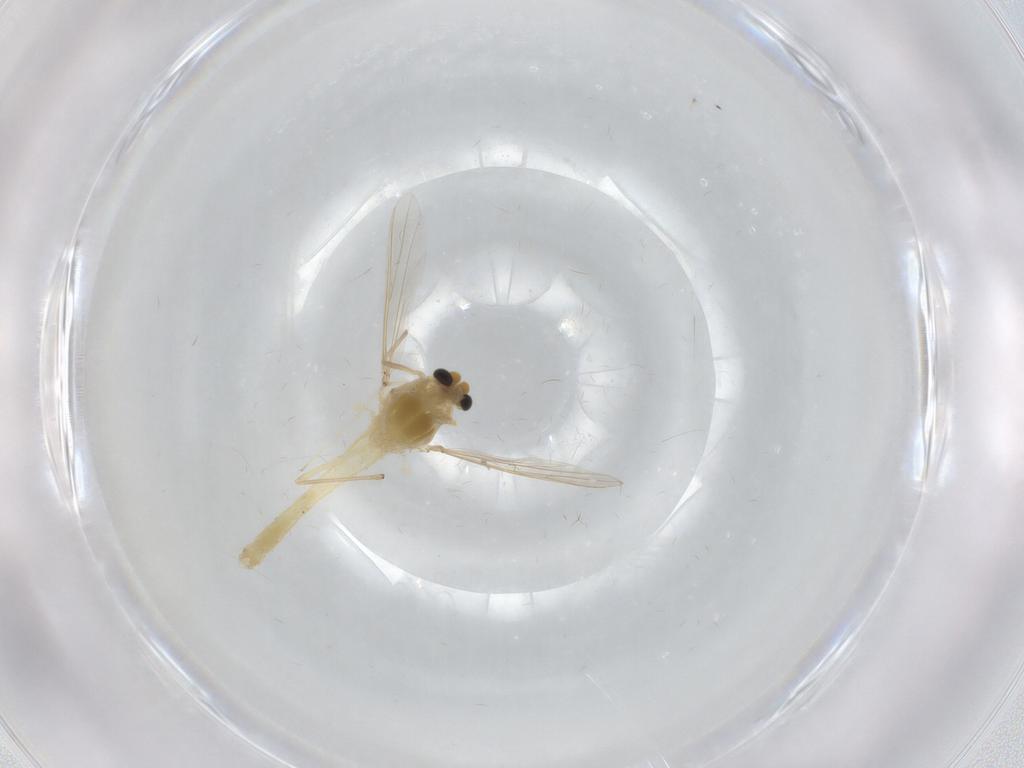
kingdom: Animalia
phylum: Arthropoda
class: Insecta
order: Diptera
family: Chironomidae
